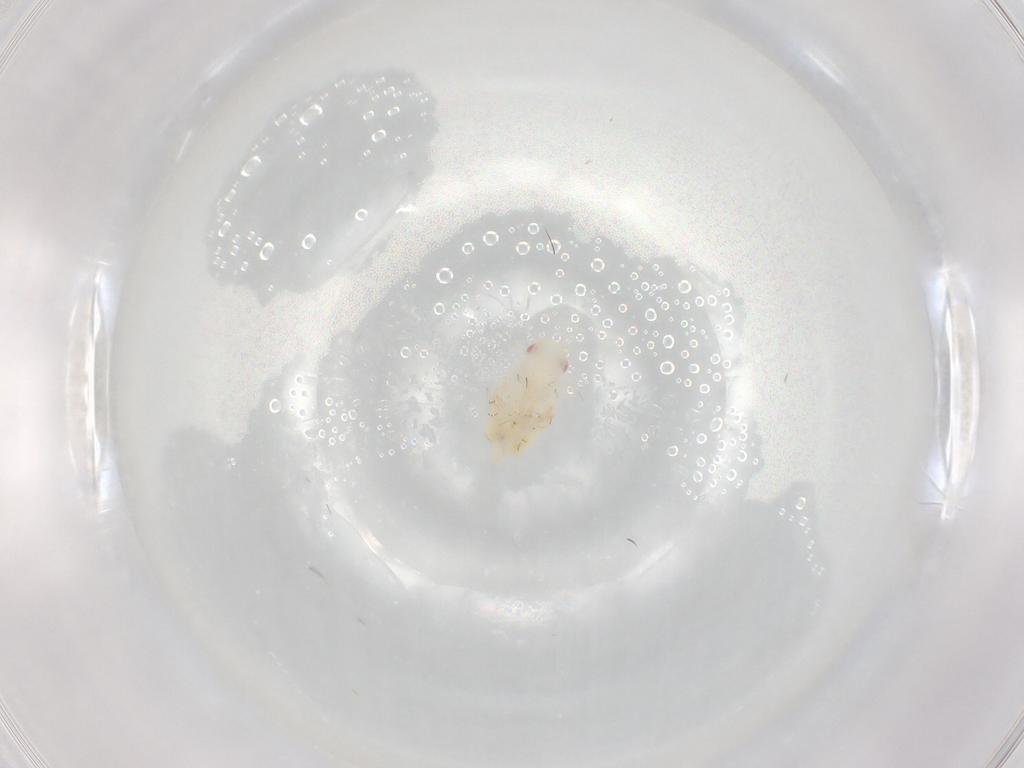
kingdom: Animalia
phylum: Arthropoda
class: Insecta
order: Hemiptera
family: Flatidae
